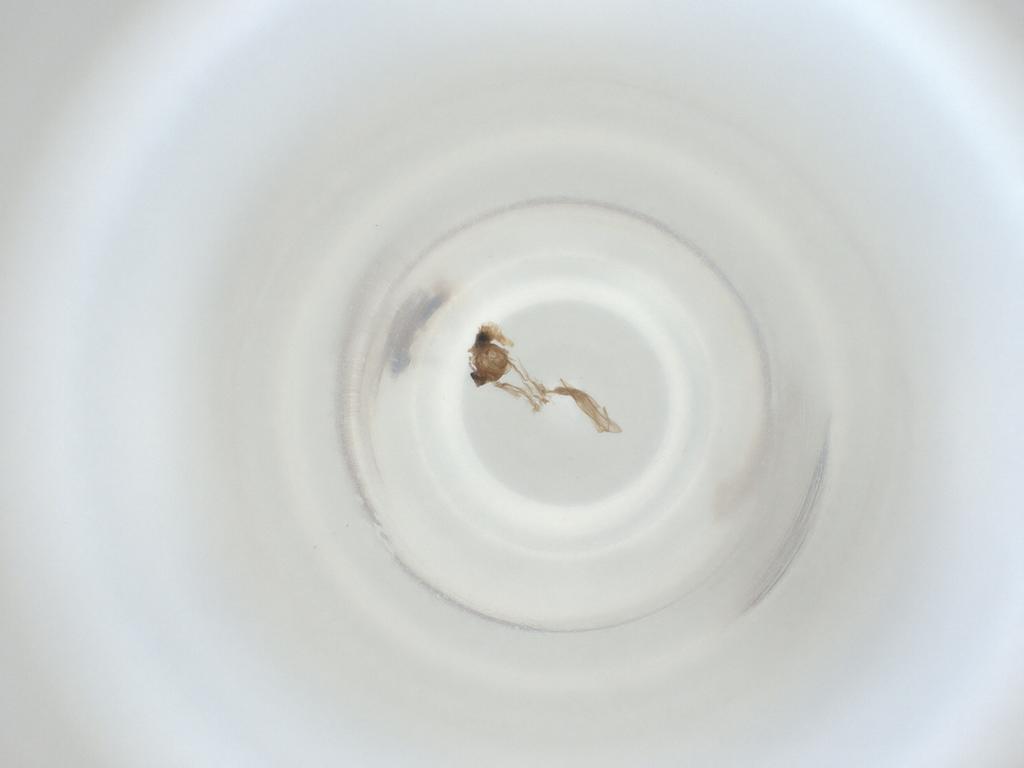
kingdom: Animalia
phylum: Arthropoda
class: Insecta
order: Diptera
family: Cecidomyiidae
